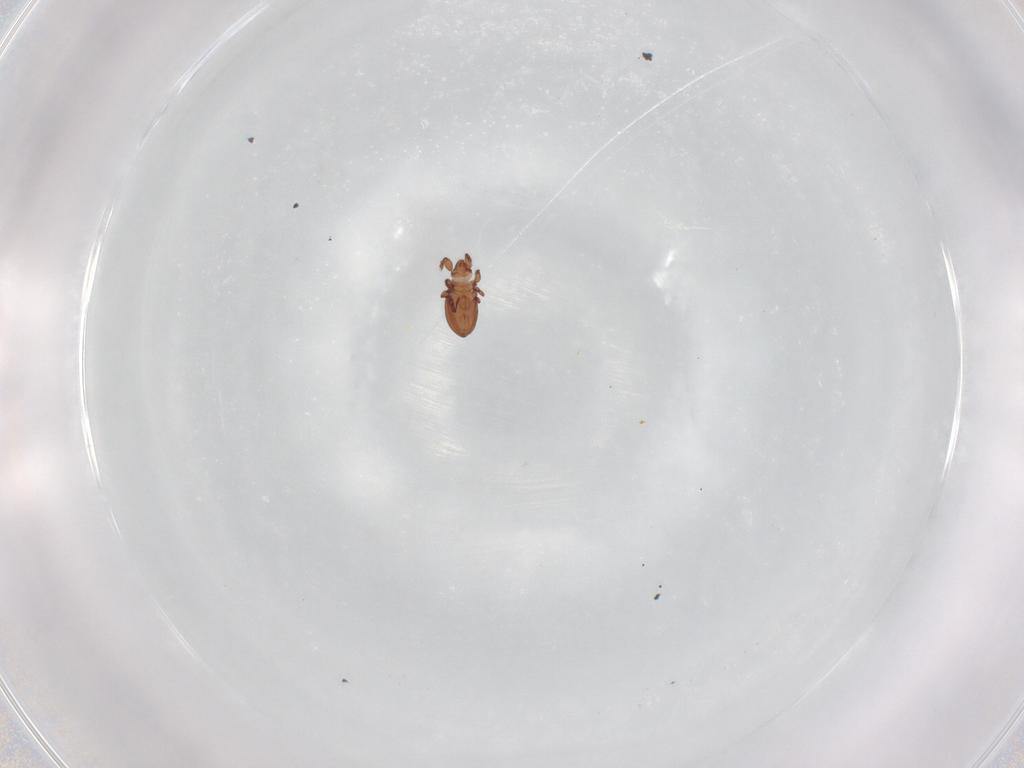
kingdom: Animalia
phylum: Arthropoda
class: Arachnida
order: Sarcoptiformes
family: Eremaeidae
